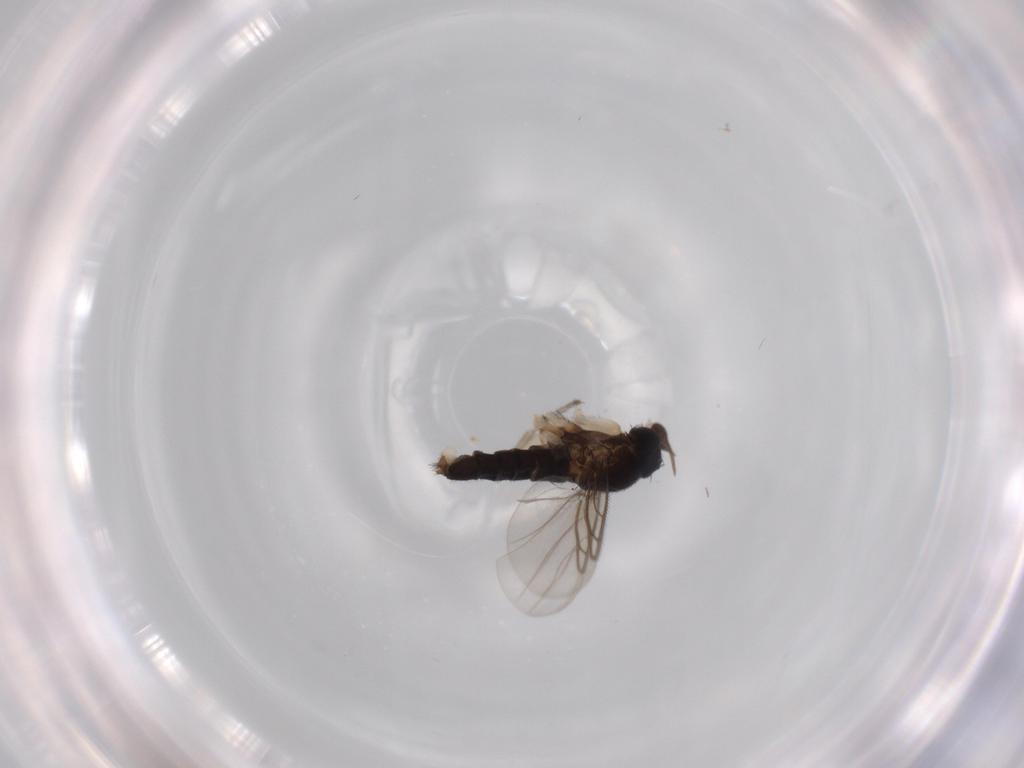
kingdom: Animalia
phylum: Arthropoda
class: Insecta
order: Diptera
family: Phoridae
